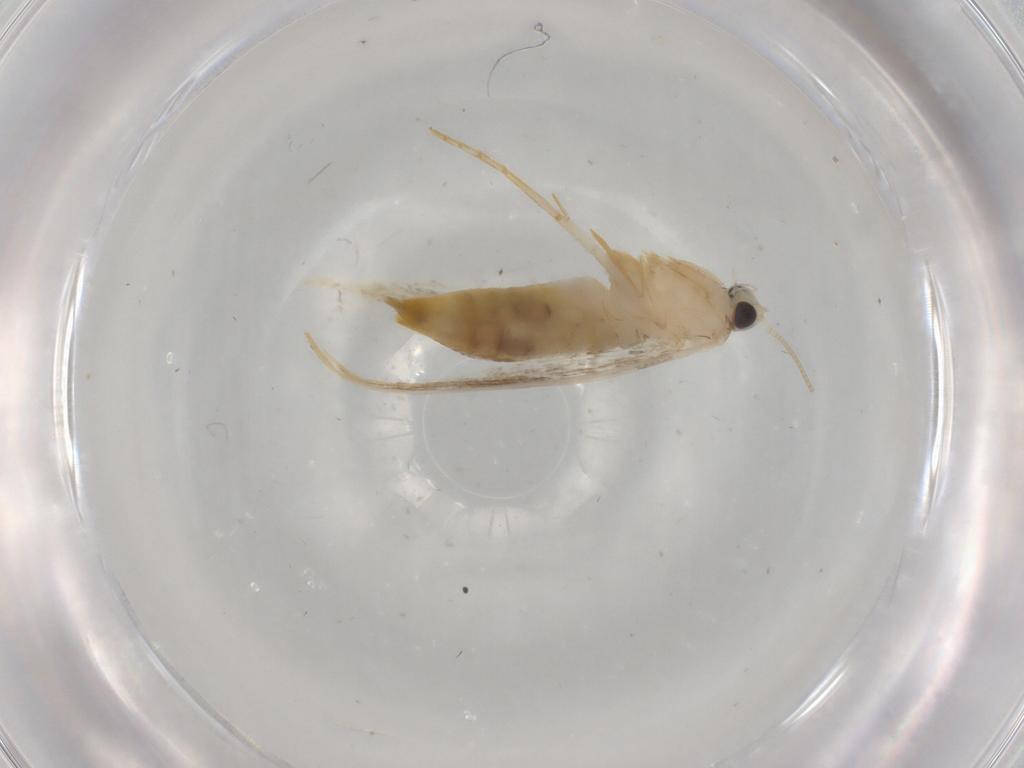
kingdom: Animalia
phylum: Arthropoda
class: Insecta
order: Lepidoptera
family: Tineidae
